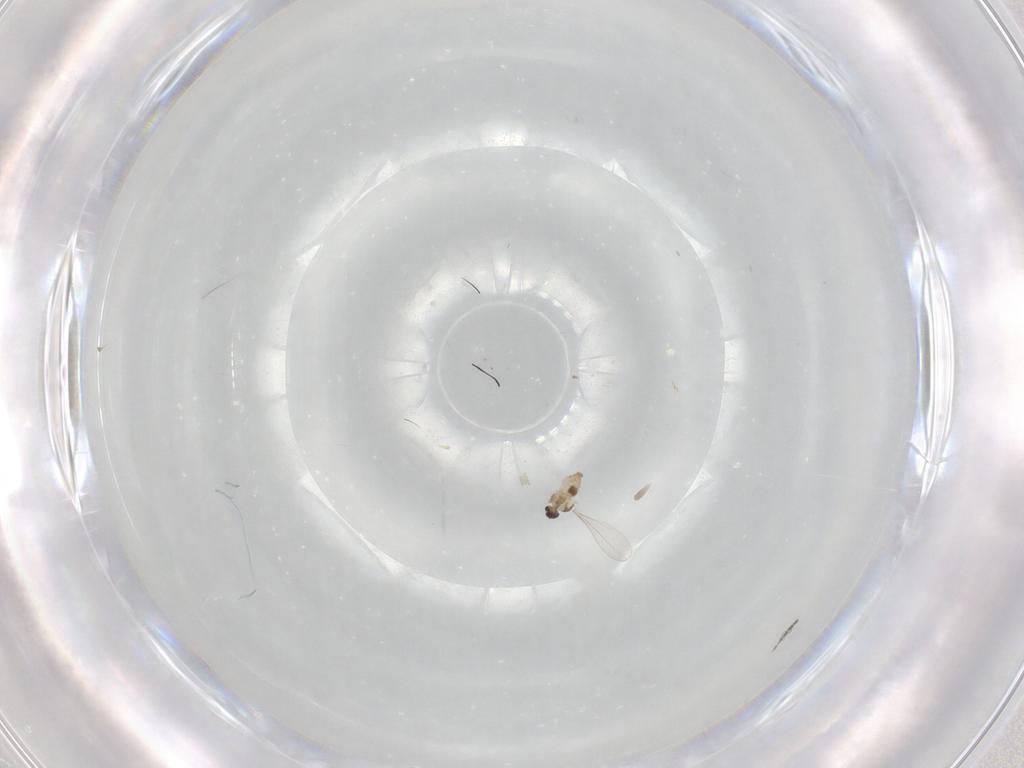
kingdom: Animalia
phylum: Arthropoda
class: Insecta
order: Diptera
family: Cecidomyiidae
